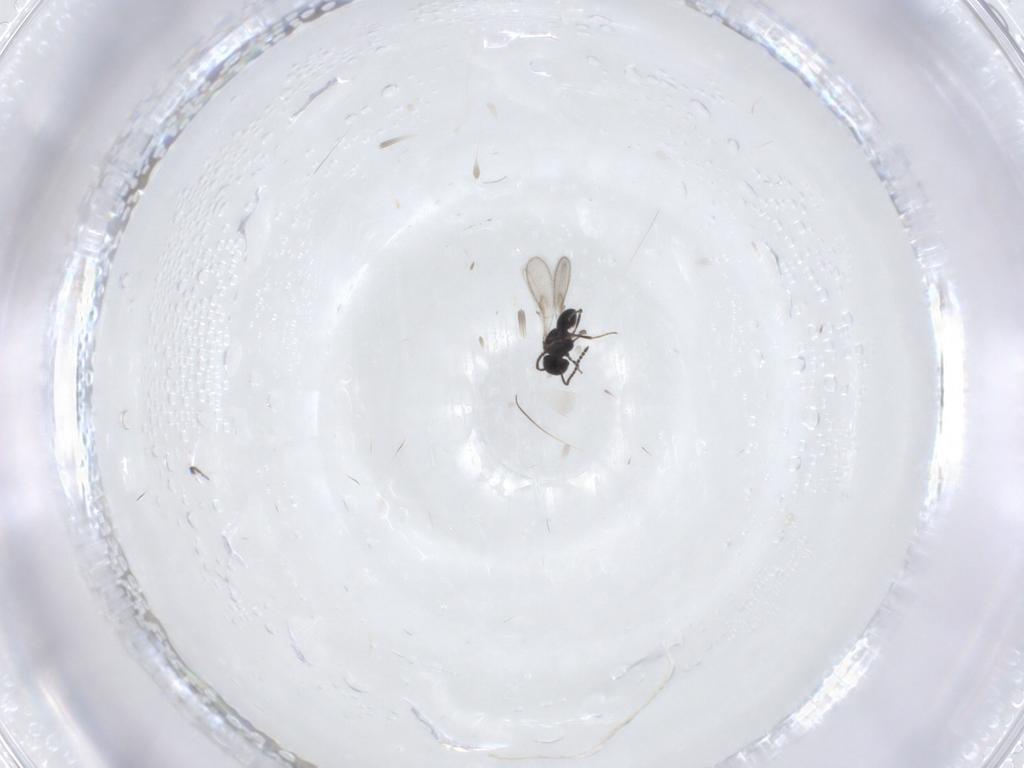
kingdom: Animalia
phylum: Arthropoda
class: Insecta
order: Hymenoptera
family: Scelionidae
